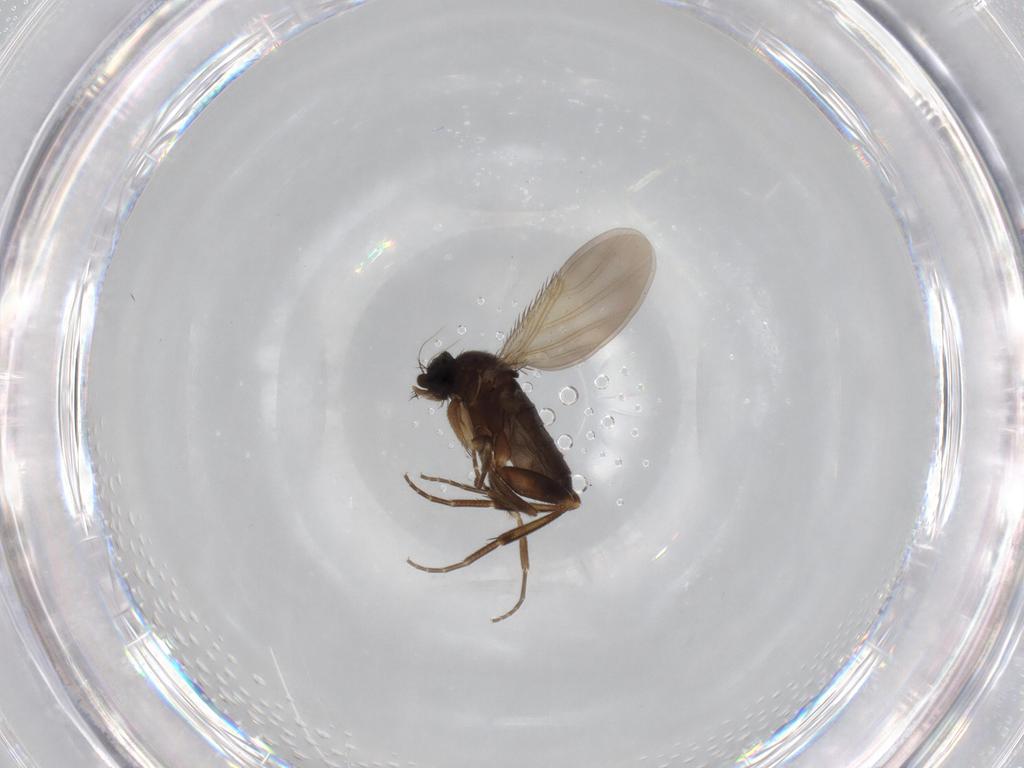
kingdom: Animalia
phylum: Arthropoda
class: Insecta
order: Diptera
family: Phoridae
